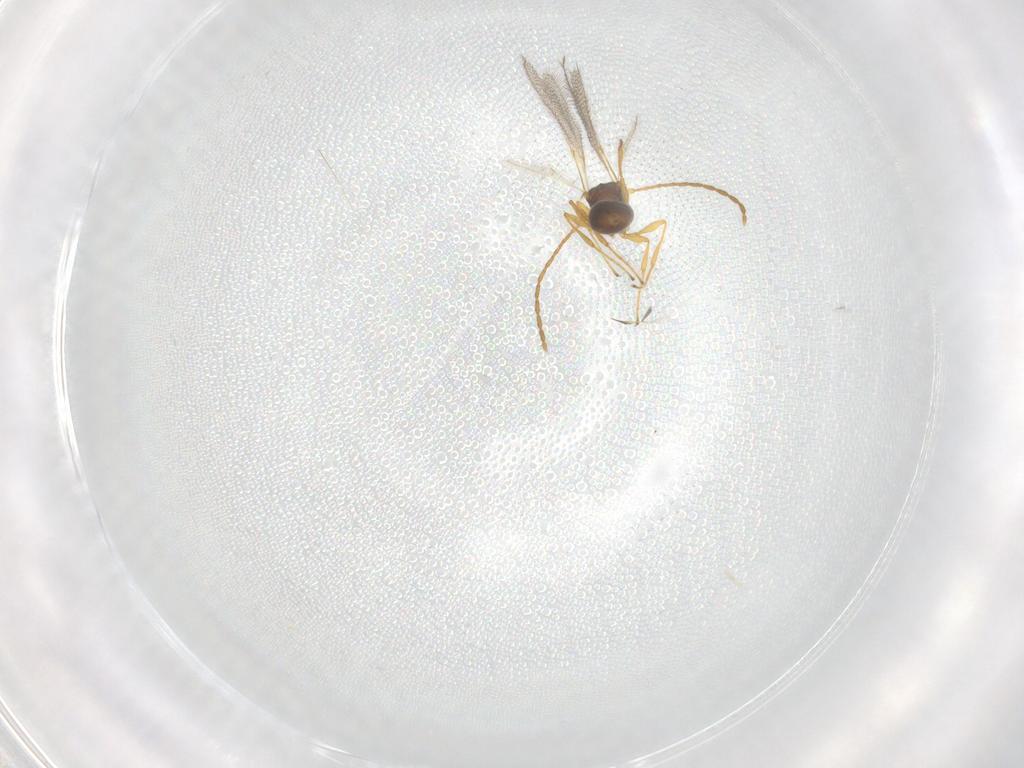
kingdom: Animalia
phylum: Arthropoda
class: Insecta
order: Hymenoptera
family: Diapriidae
